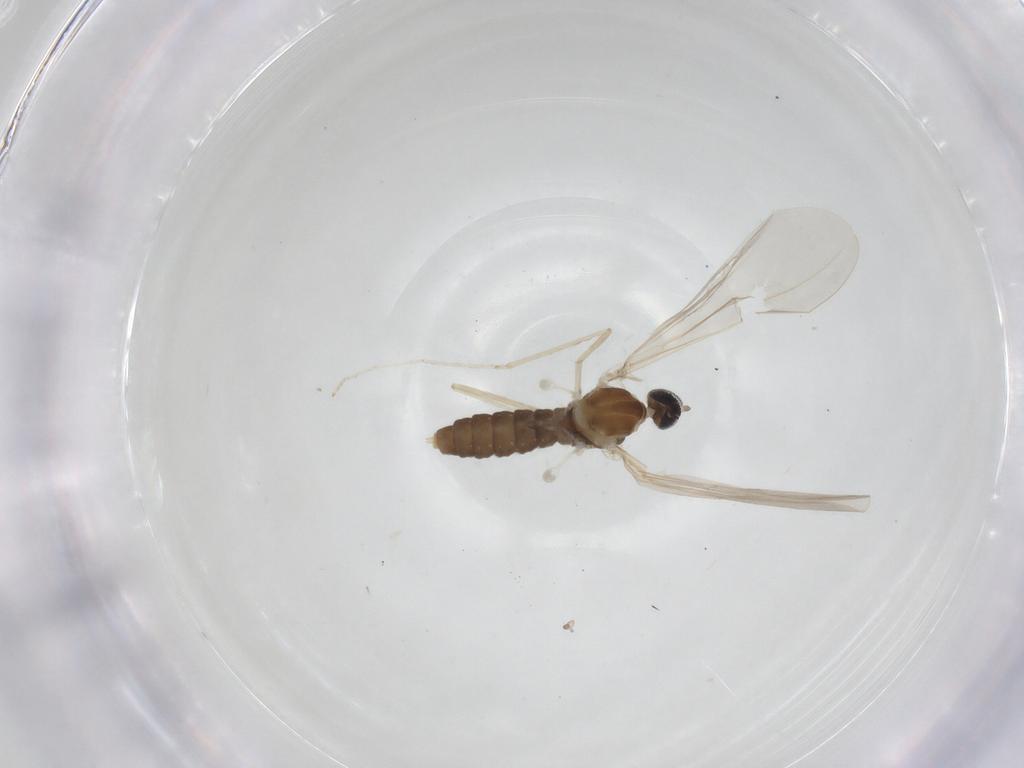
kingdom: Animalia
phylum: Arthropoda
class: Insecta
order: Diptera
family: Cecidomyiidae
